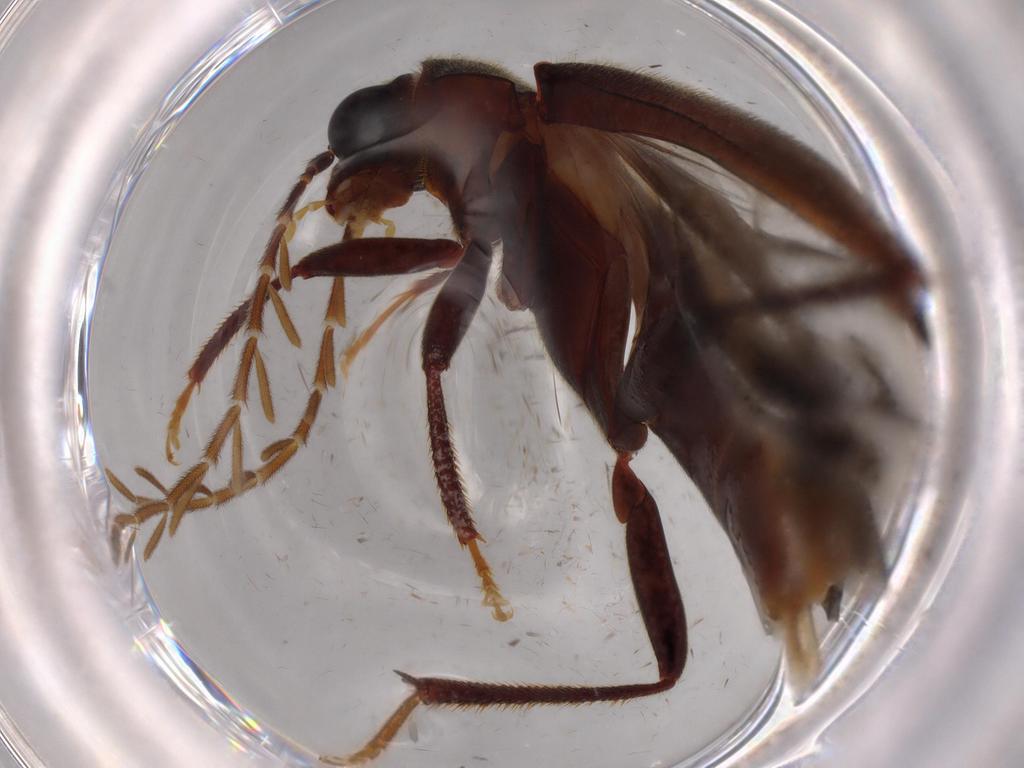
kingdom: Animalia
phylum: Arthropoda
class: Insecta
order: Coleoptera
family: Ptilodactylidae
